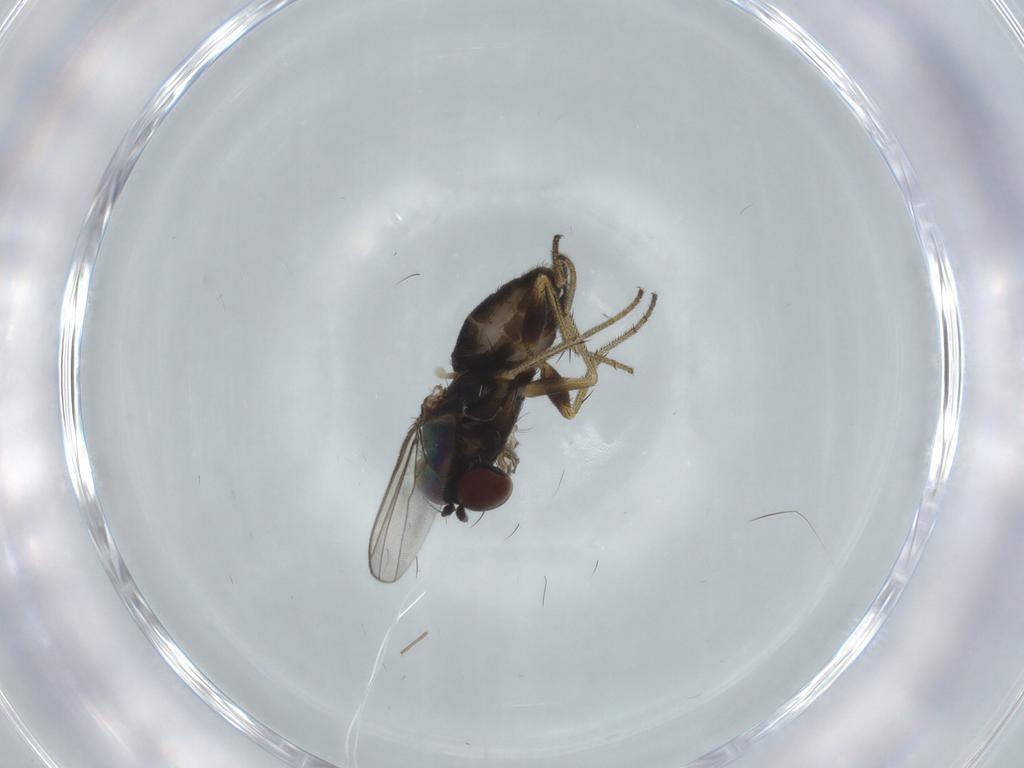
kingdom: Animalia
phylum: Arthropoda
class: Insecta
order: Diptera
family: Dolichopodidae
